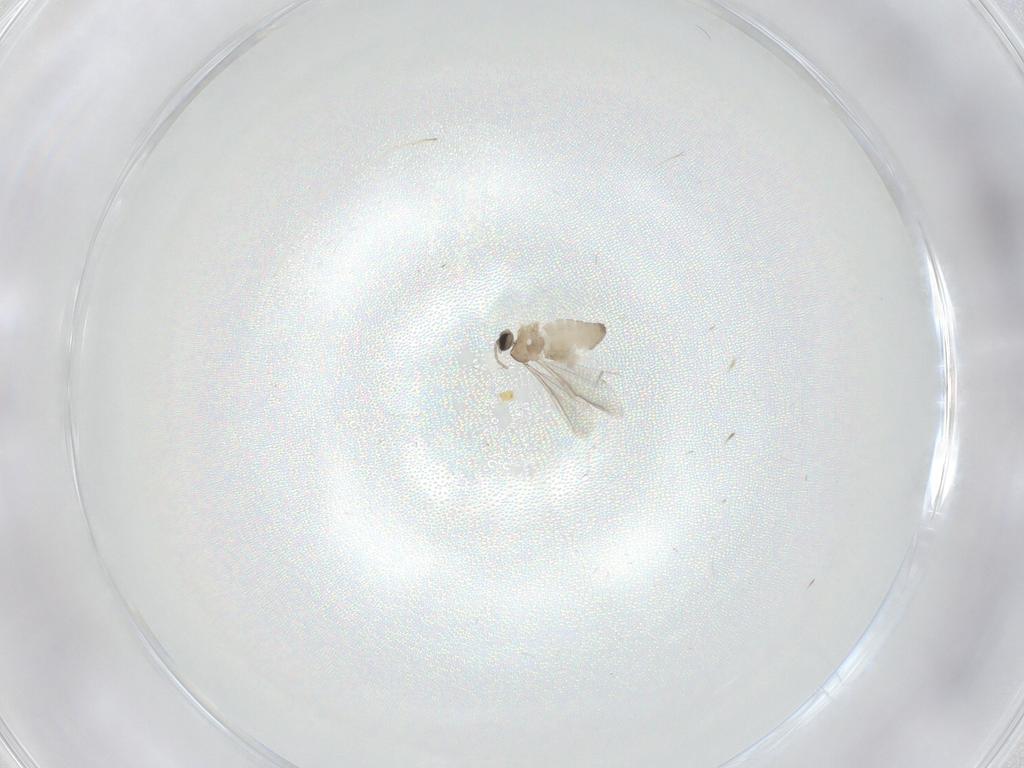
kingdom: Animalia
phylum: Arthropoda
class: Insecta
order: Diptera
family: Cecidomyiidae
